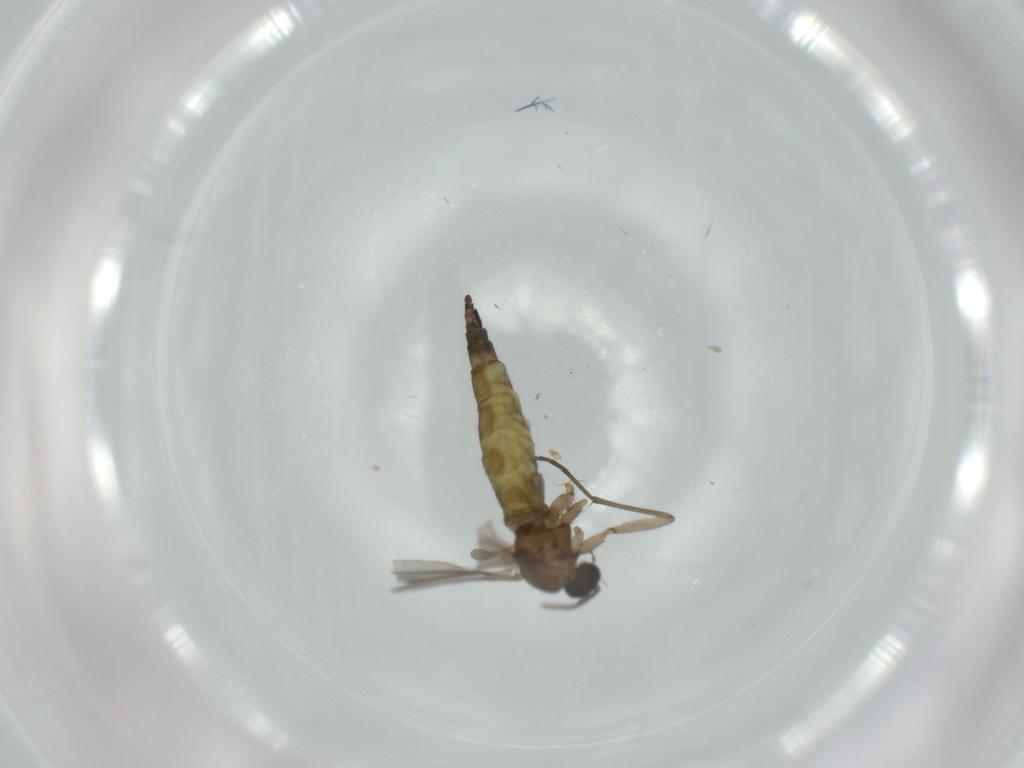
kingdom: Animalia
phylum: Arthropoda
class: Insecta
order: Diptera
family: Sciaridae
